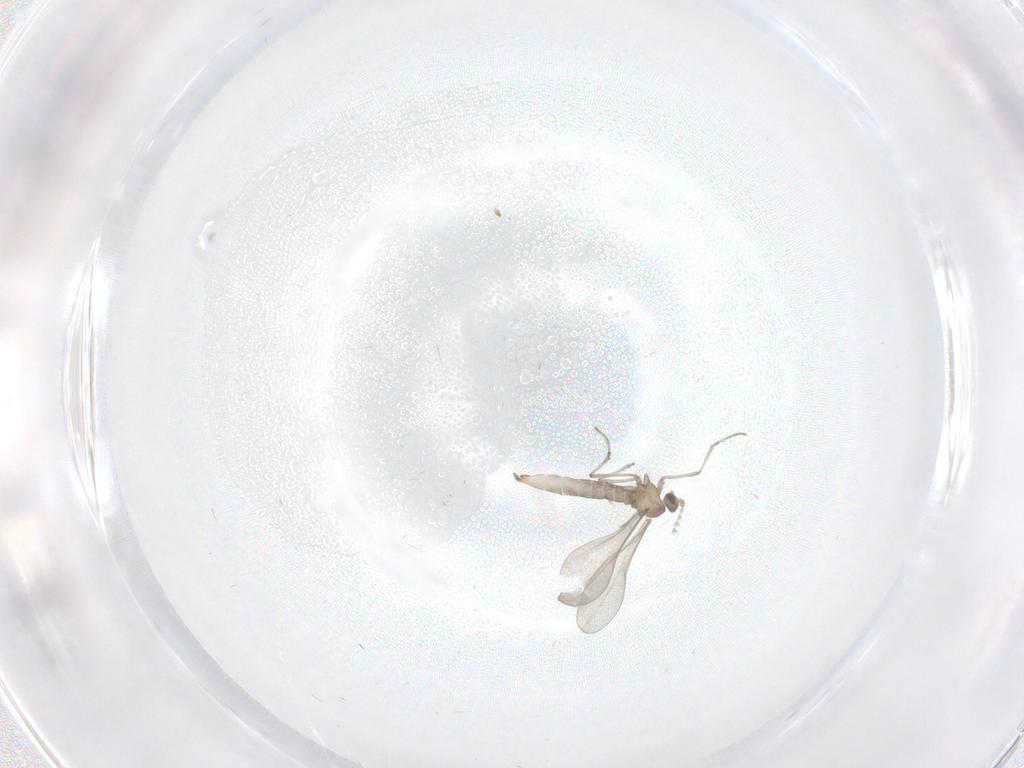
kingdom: Animalia
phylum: Arthropoda
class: Insecta
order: Diptera
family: Cecidomyiidae
